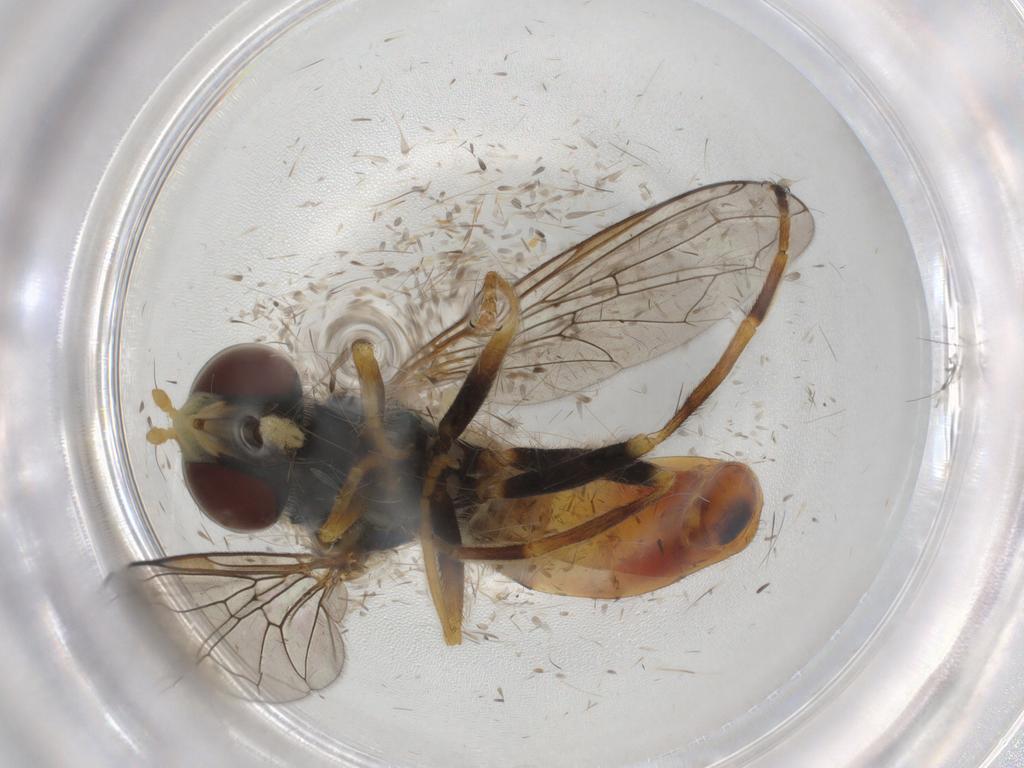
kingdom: Animalia
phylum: Arthropoda
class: Insecta
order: Diptera
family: Syrphidae
